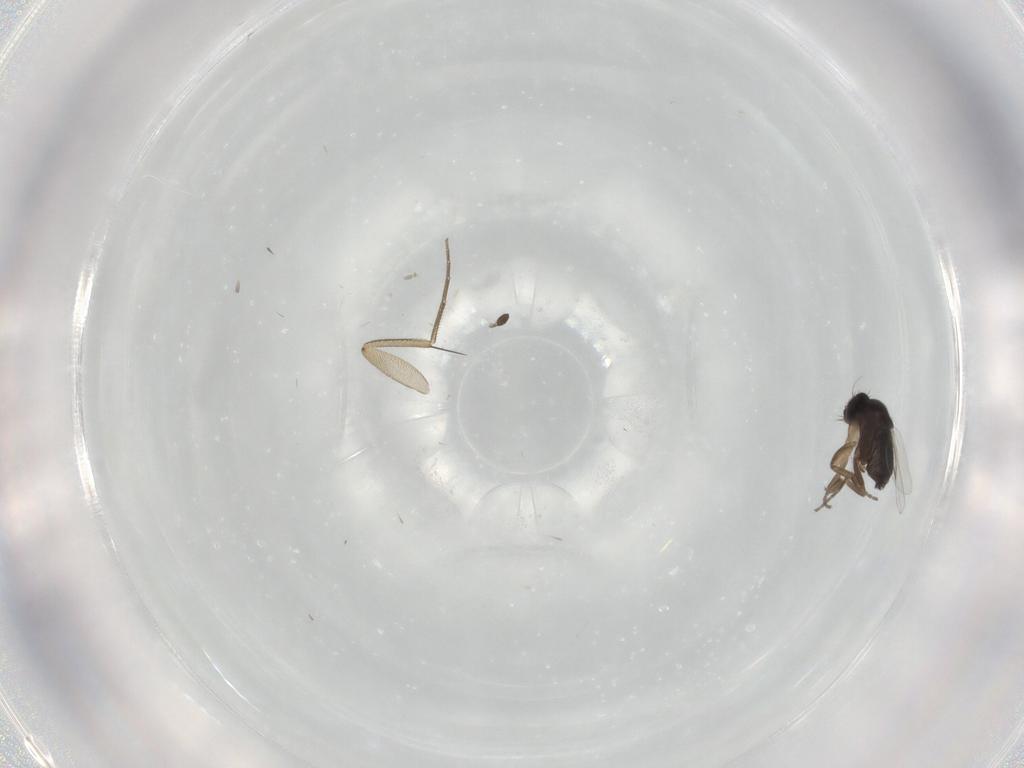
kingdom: Animalia
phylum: Arthropoda
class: Insecta
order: Diptera
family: Phoridae
